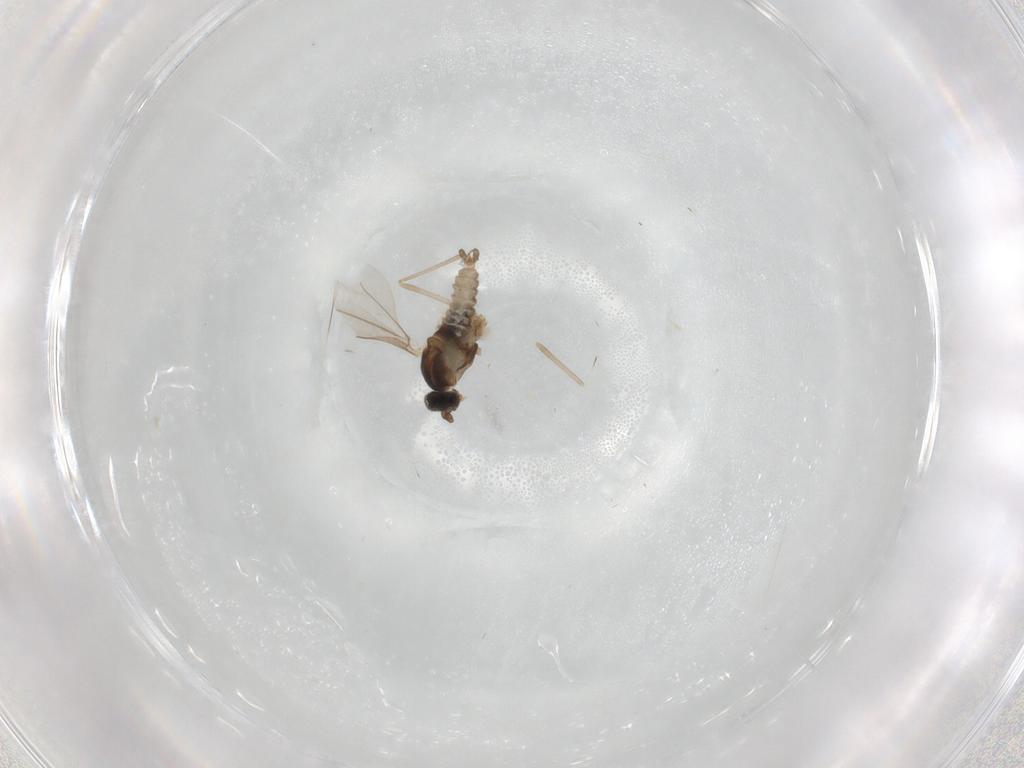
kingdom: Animalia
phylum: Arthropoda
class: Insecta
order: Diptera
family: Cecidomyiidae
